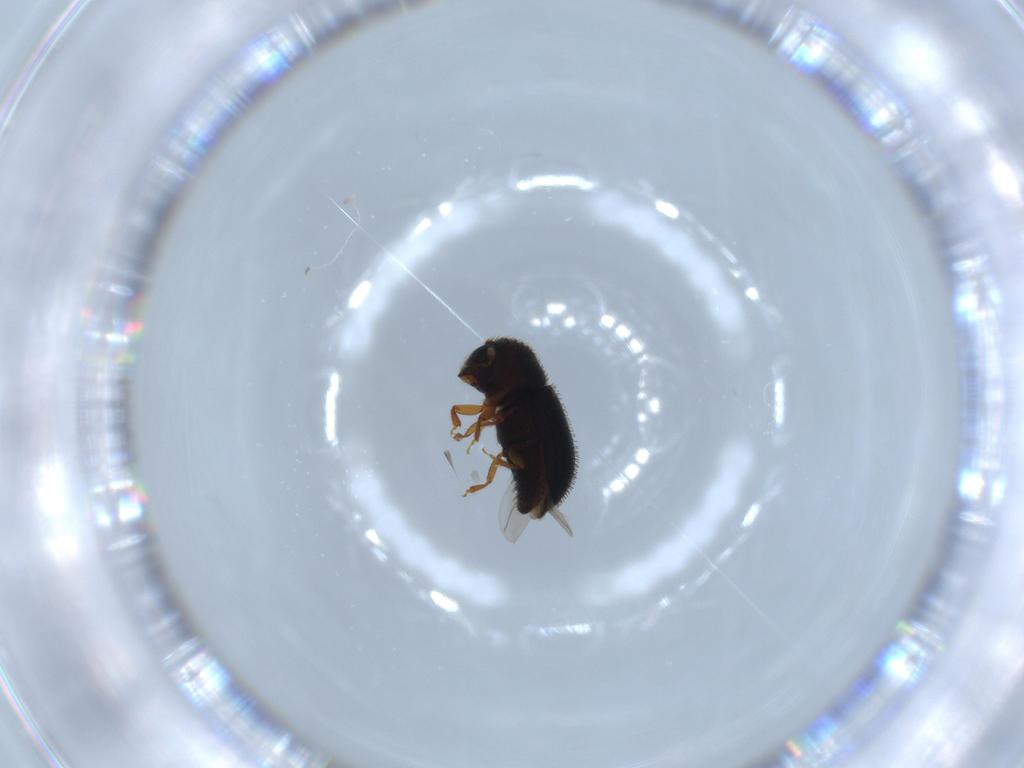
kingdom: Animalia
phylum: Arthropoda
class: Insecta
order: Coleoptera
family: Curculionidae
